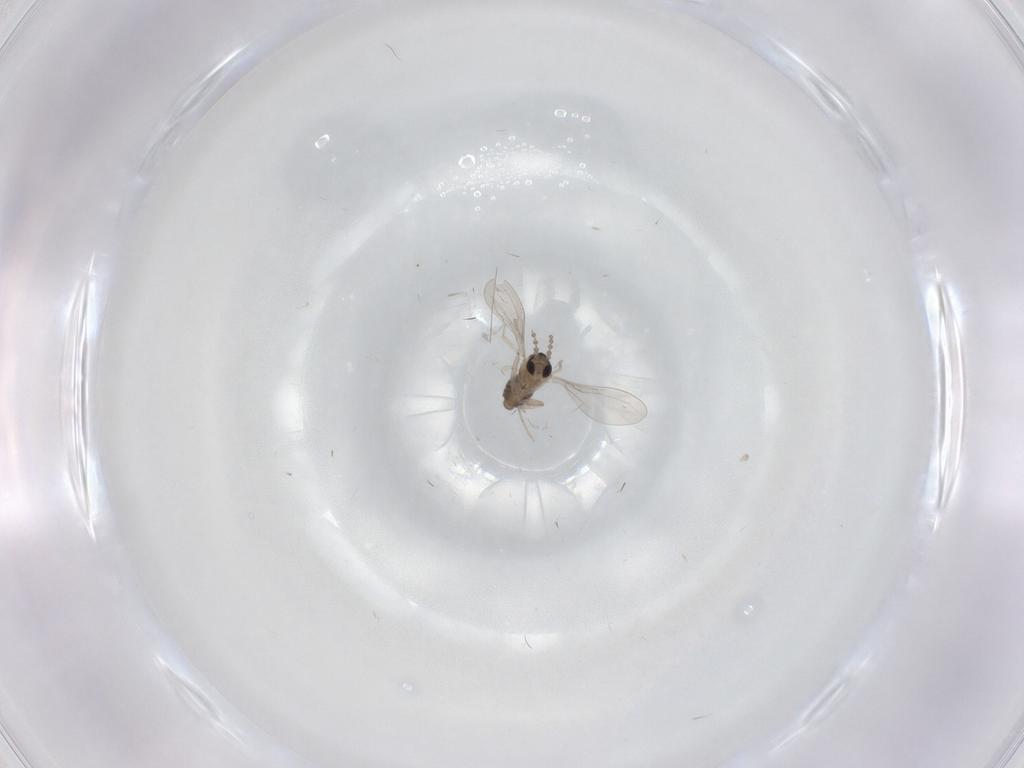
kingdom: Animalia
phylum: Arthropoda
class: Insecta
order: Diptera
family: Cecidomyiidae
